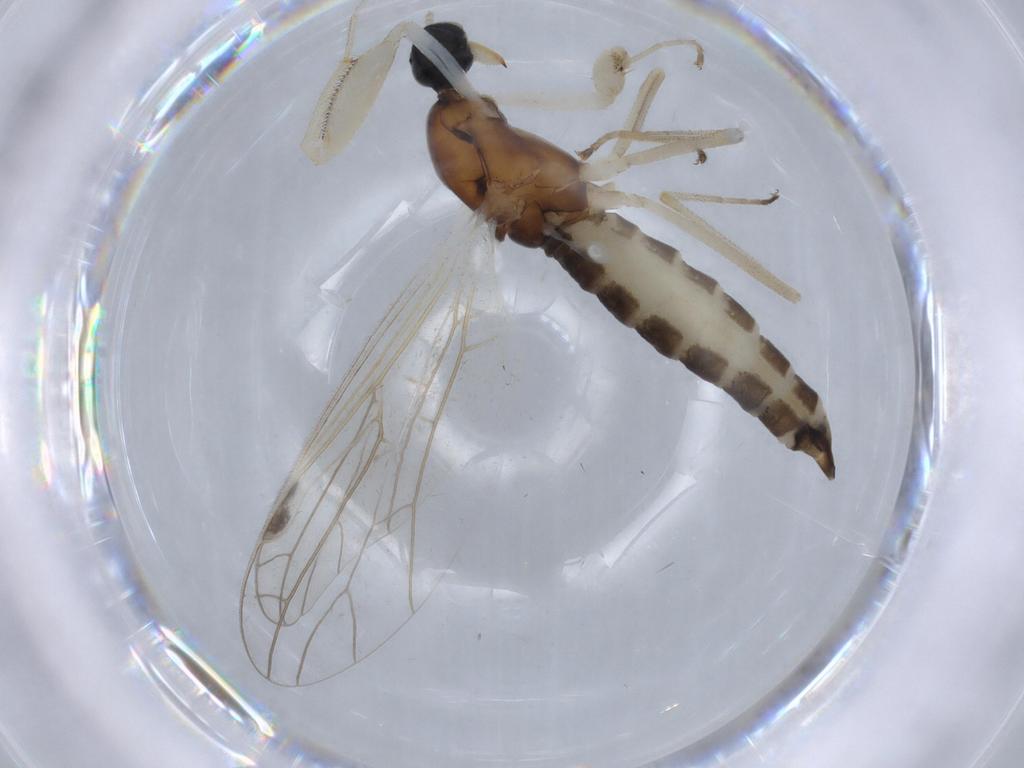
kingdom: Animalia
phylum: Arthropoda
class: Insecta
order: Diptera
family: Empididae
